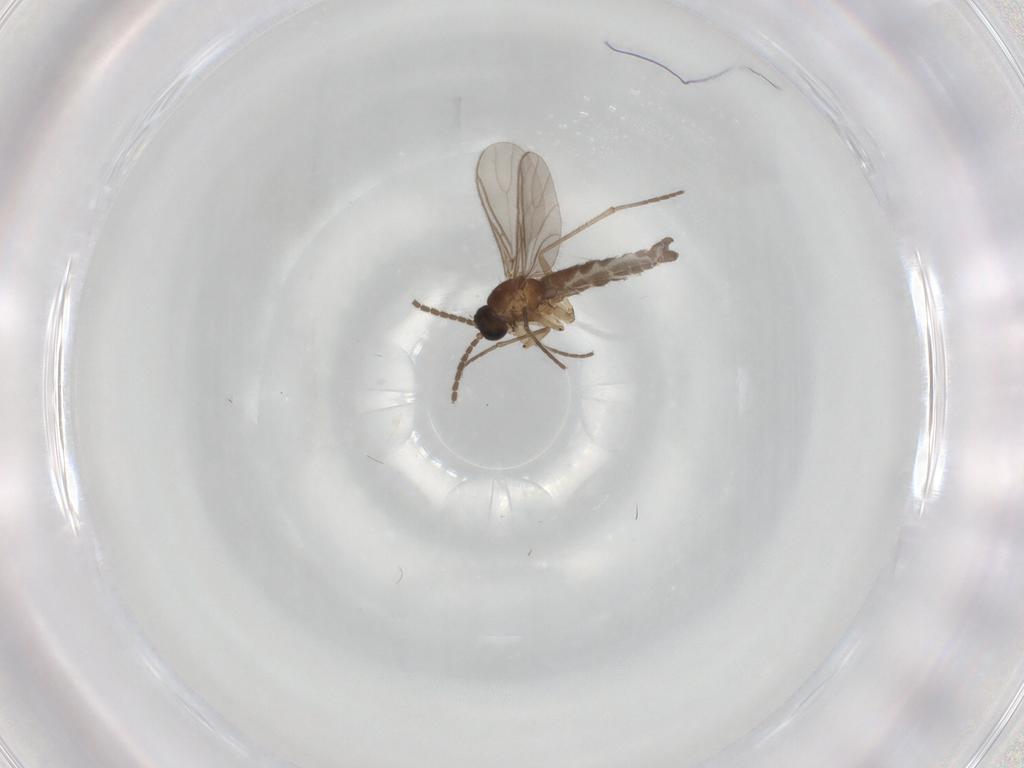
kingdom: Animalia
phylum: Arthropoda
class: Insecta
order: Diptera
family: Sciaridae
